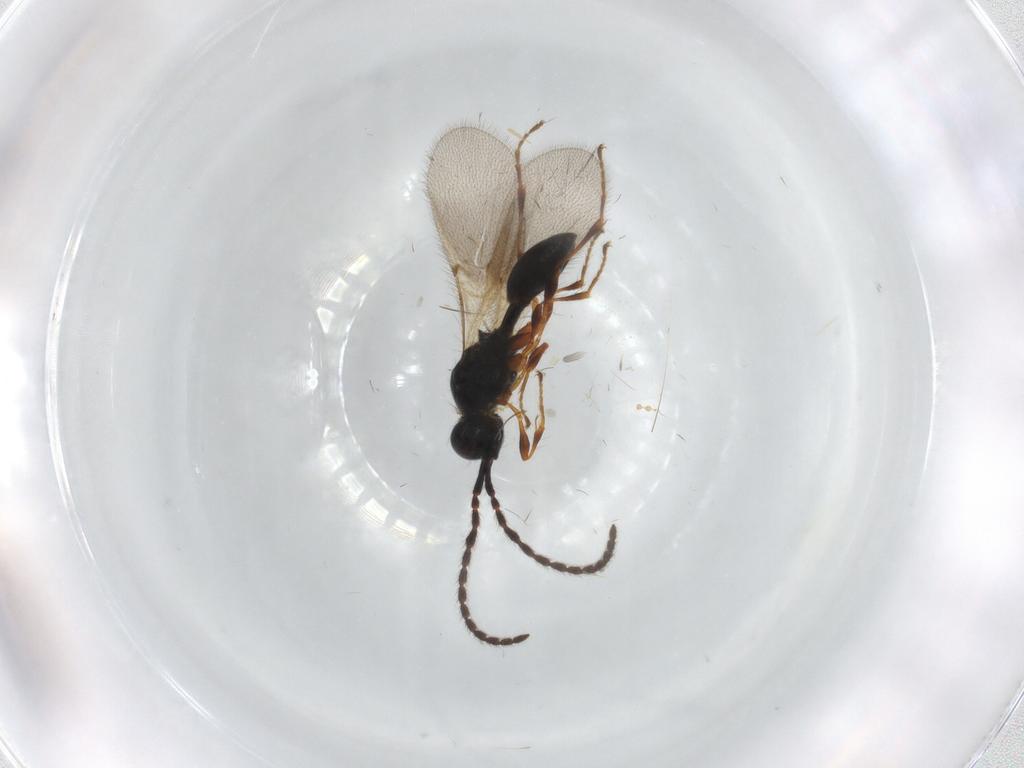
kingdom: Animalia
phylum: Arthropoda
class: Insecta
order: Hymenoptera
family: Diapriidae
